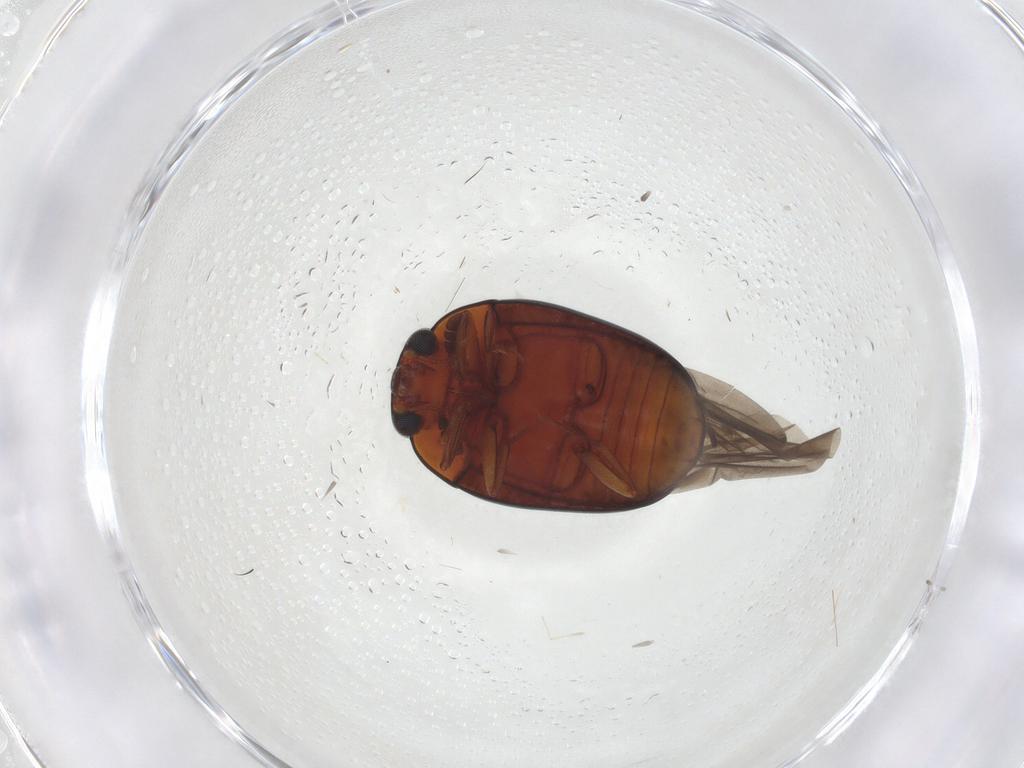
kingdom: Animalia
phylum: Arthropoda
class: Insecta
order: Coleoptera
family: Nitidulidae
